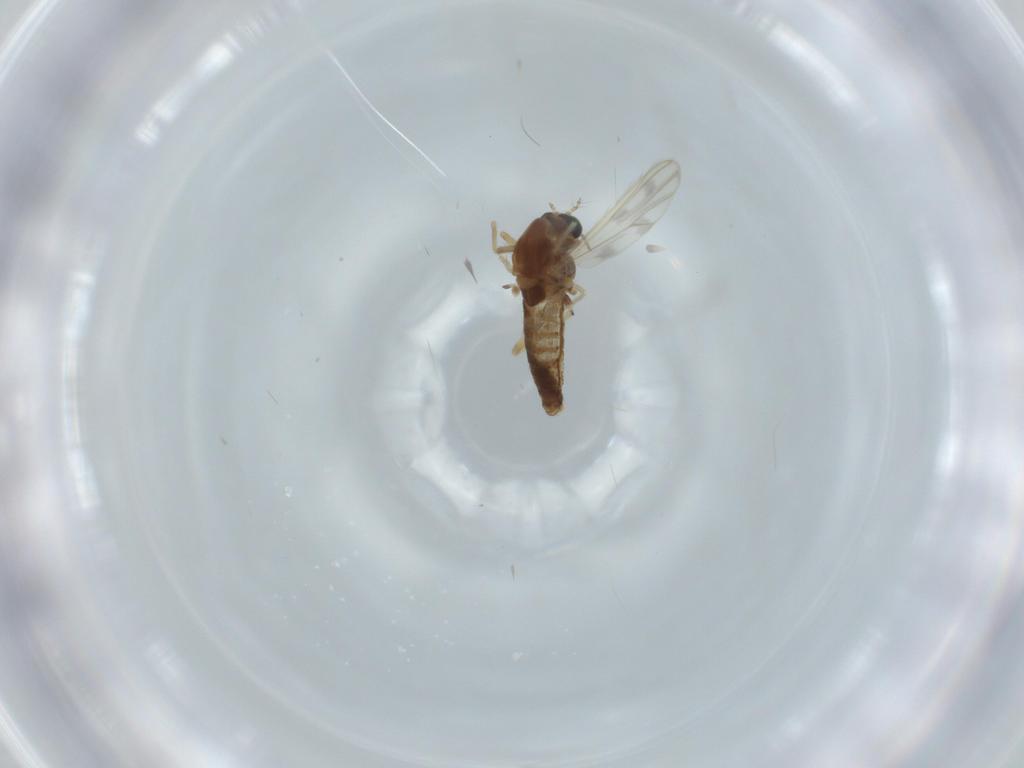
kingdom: Animalia
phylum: Arthropoda
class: Insecta
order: Diptera
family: Chironomidae
